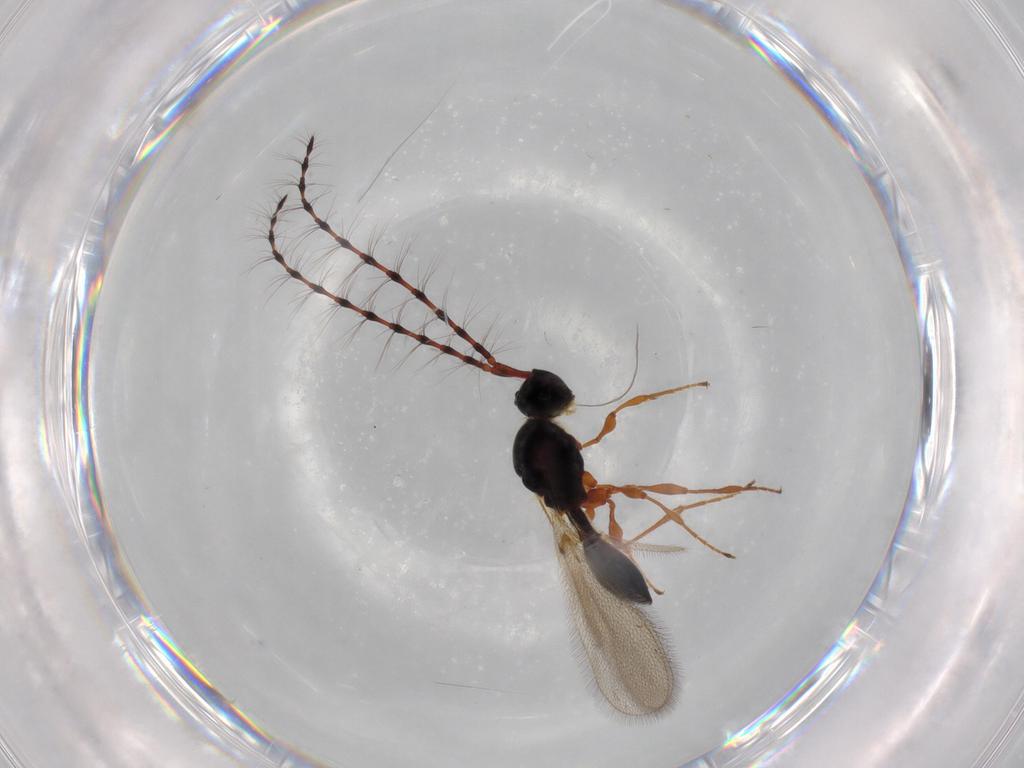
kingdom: Animalia
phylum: Arthropoda
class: Insecta
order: Hymenoptera
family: Diapriidae
